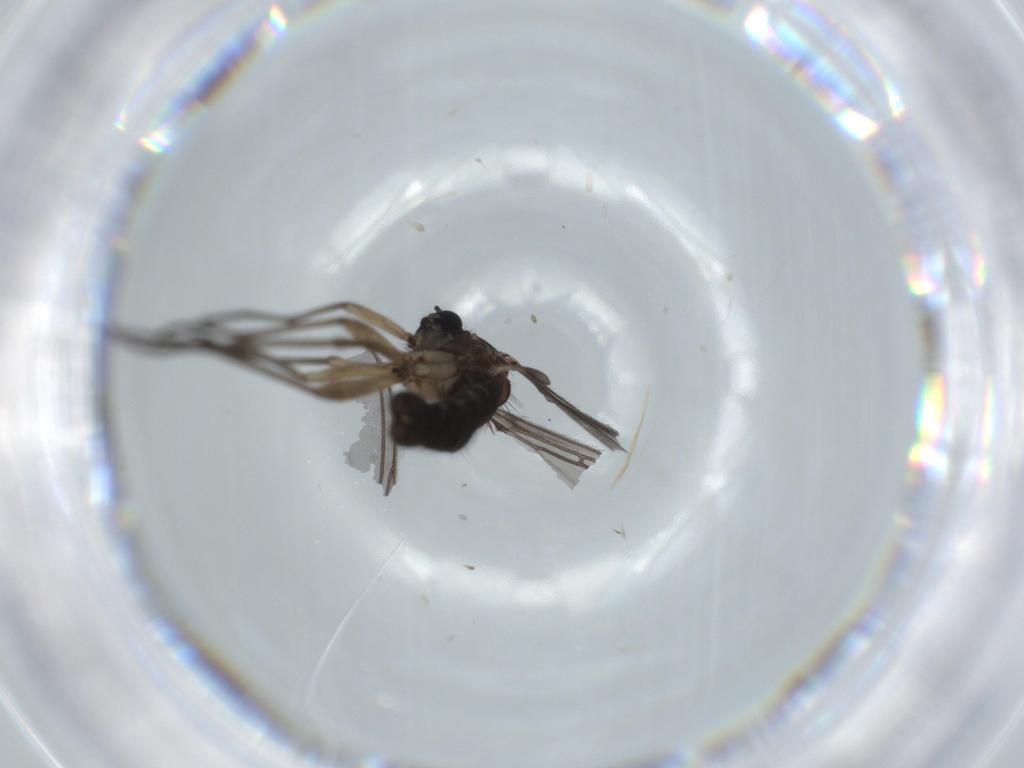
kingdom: Animalia
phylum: Arthropoda
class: Insecta
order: Diptera
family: Sciaridae
